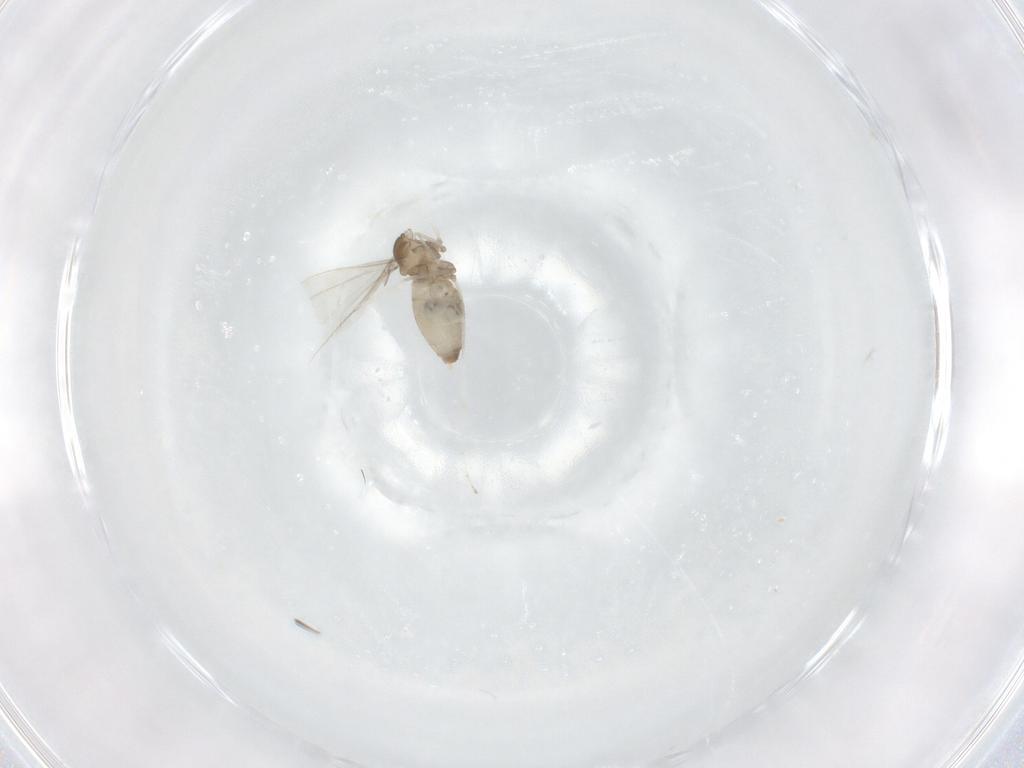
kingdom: Animalia
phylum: Arthropoda
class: Insecta
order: Diptera
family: Cecidomyiidae
